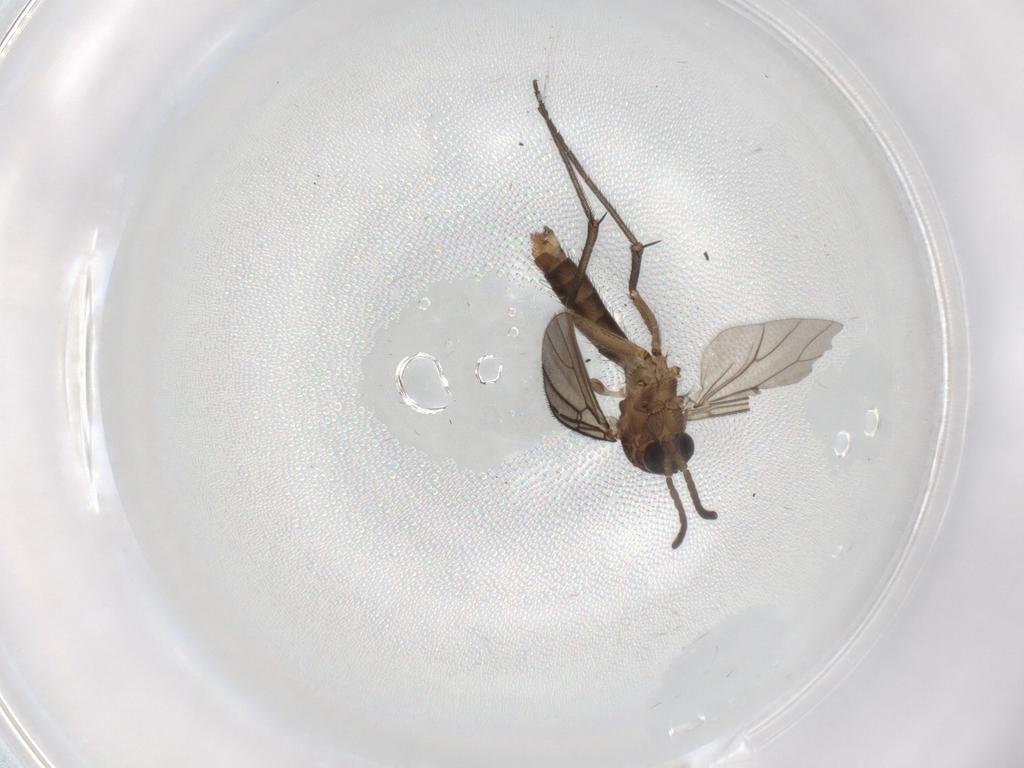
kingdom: Animalia
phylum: Arthropoda
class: Insecta
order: Diptera
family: Mycetophilidae
